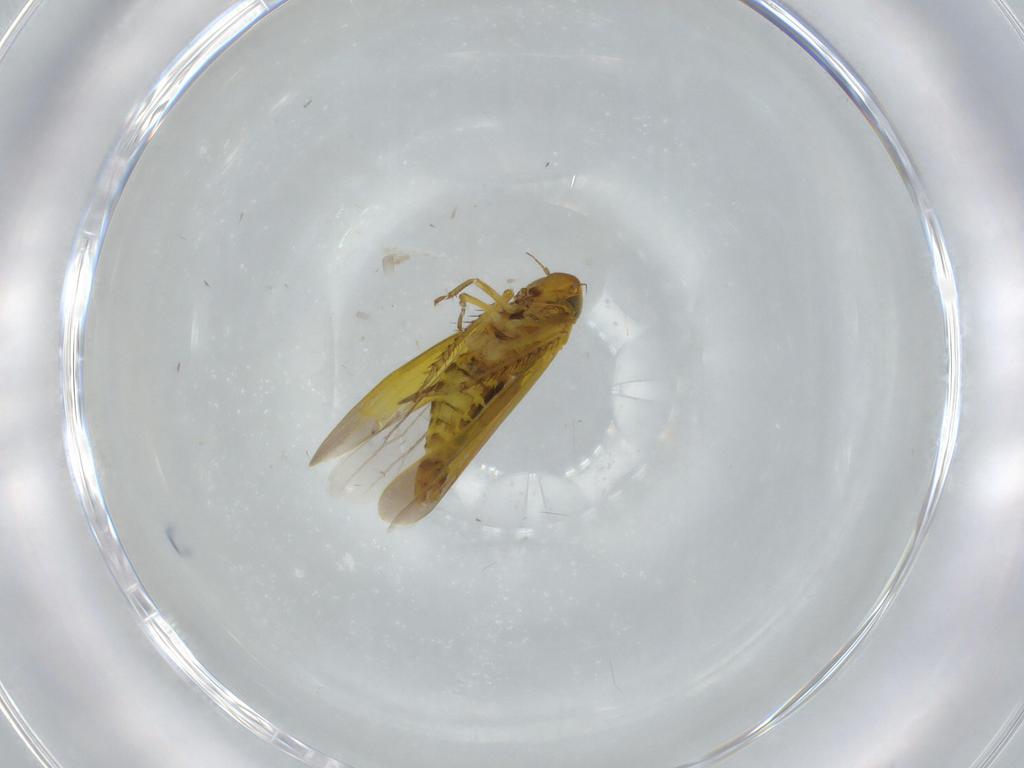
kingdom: Animalia
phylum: Arthropoda
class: Insecta
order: Hemiptera
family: Cicadellidae
